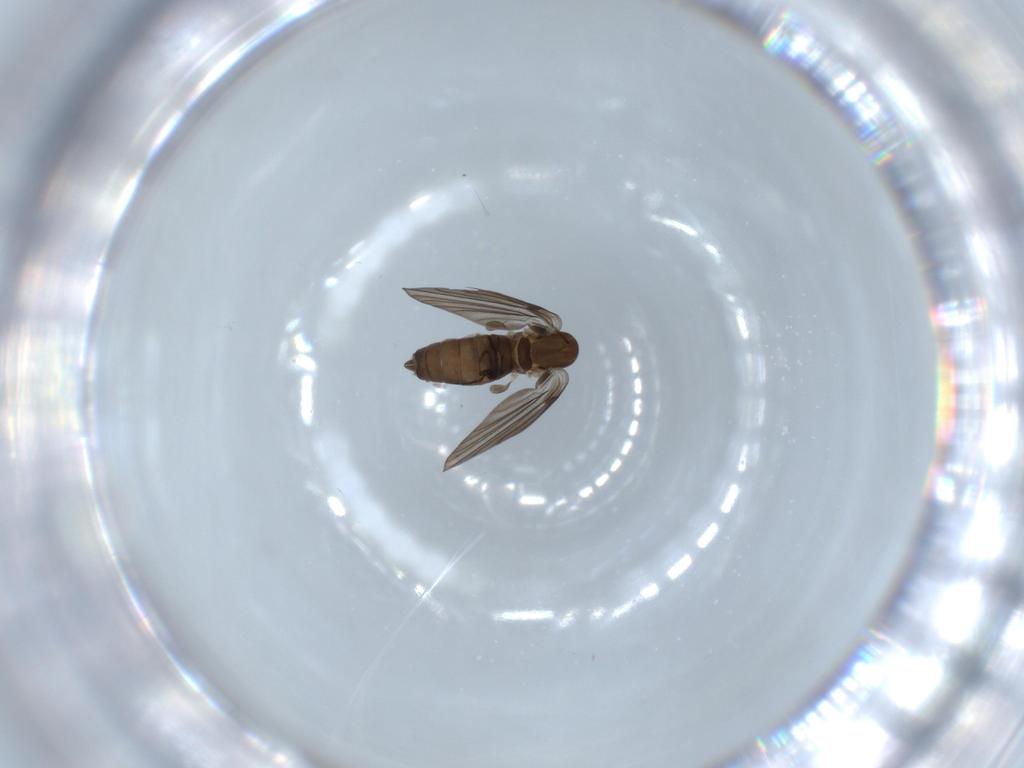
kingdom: Animalia
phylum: Arthropoda
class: Insecta
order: Diptera
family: Psychodidae
